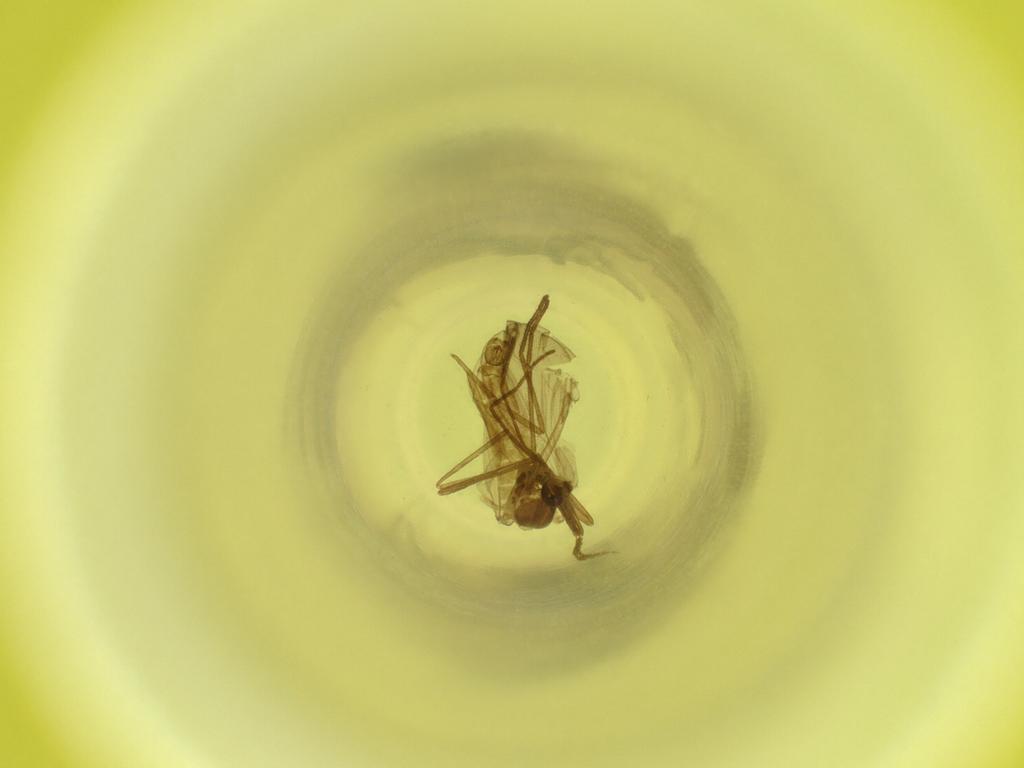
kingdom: Animalia
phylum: Arthropoda
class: Insecta
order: Diptera
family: Cecidomyiidae
